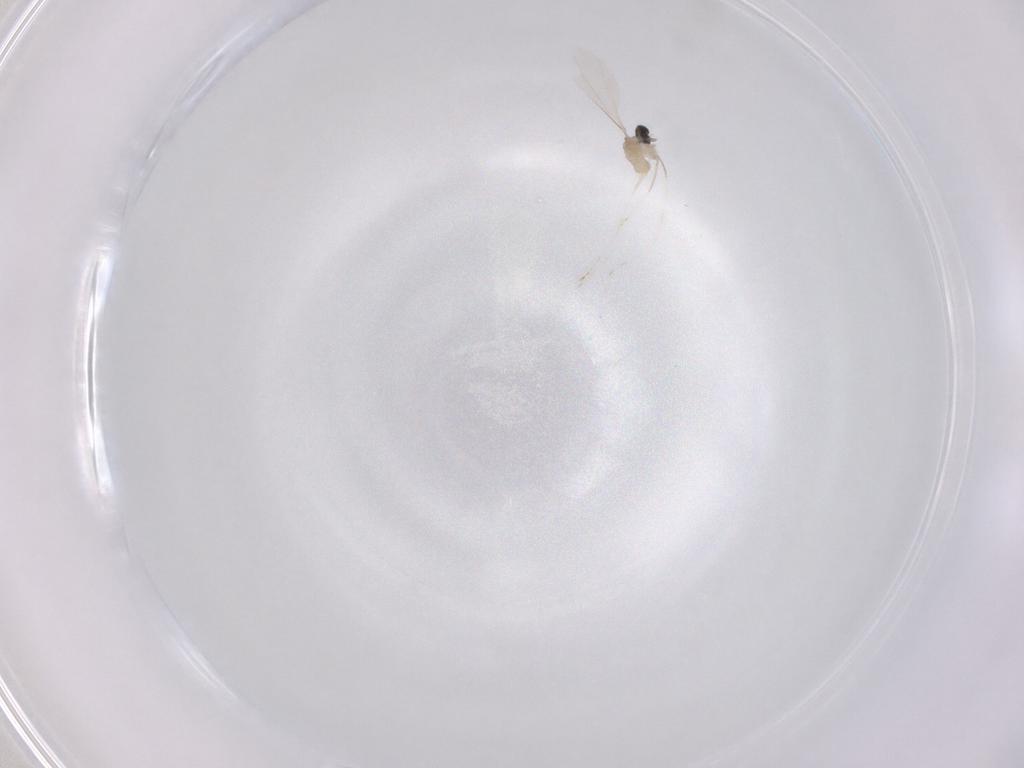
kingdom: Animalia
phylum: Arthropoda
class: Insecta
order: Diptera
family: Cecidomyiidae
